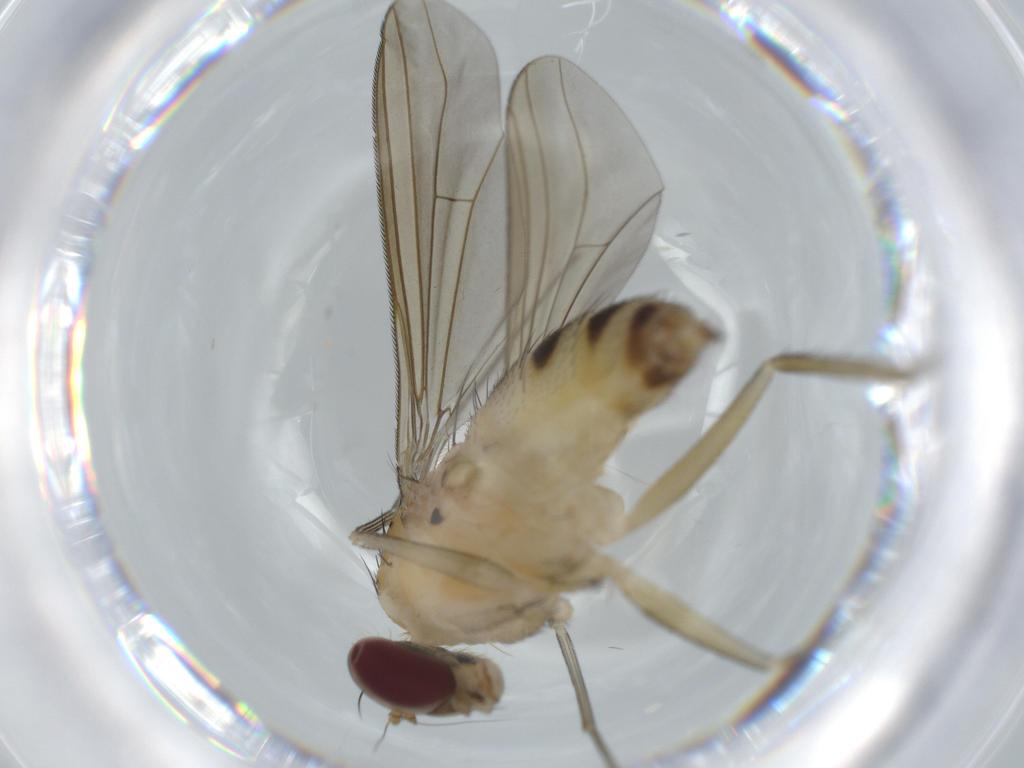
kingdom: Animalia
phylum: Arthropoda
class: Insecta
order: Diptera
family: Dolichopodidae
